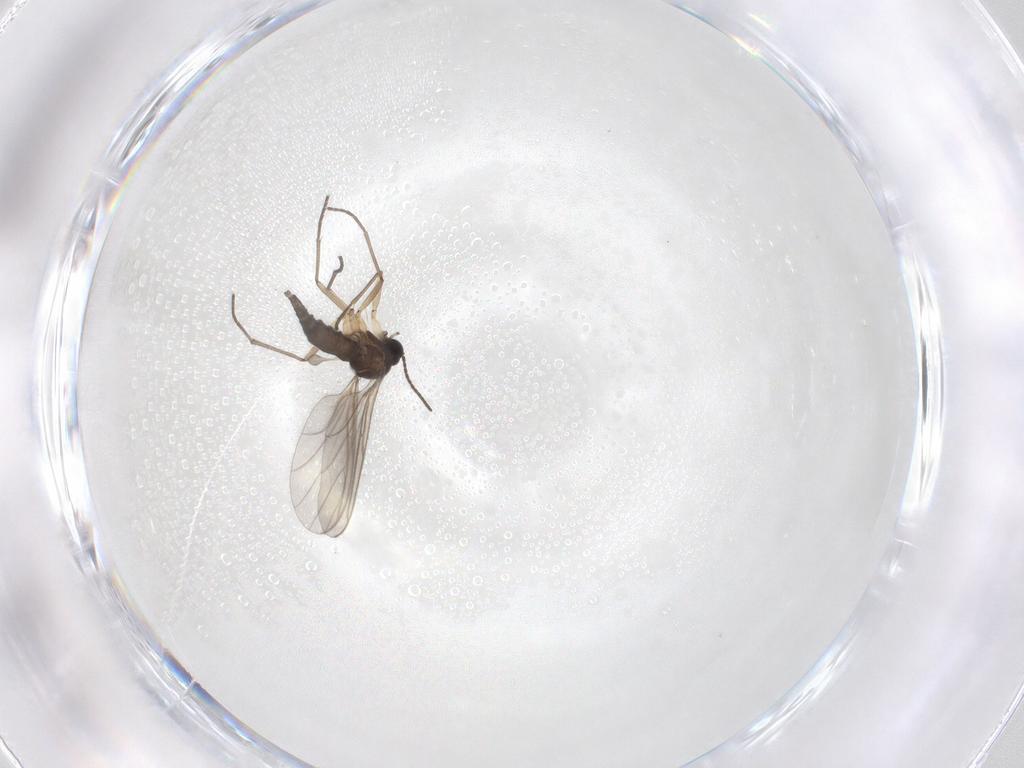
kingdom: Animalia
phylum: Arthropoda
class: Insecta
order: Diptera
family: Sciaridae
